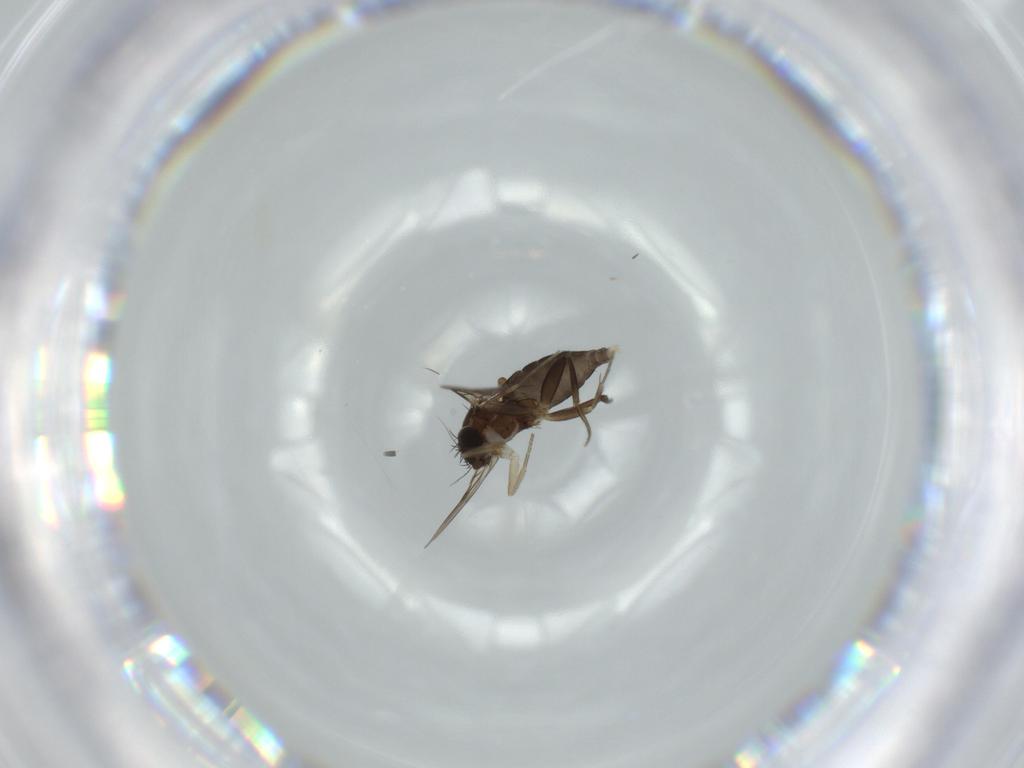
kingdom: Animalia
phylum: Arthropoda
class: Insecta
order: Diptera
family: Phoridae
